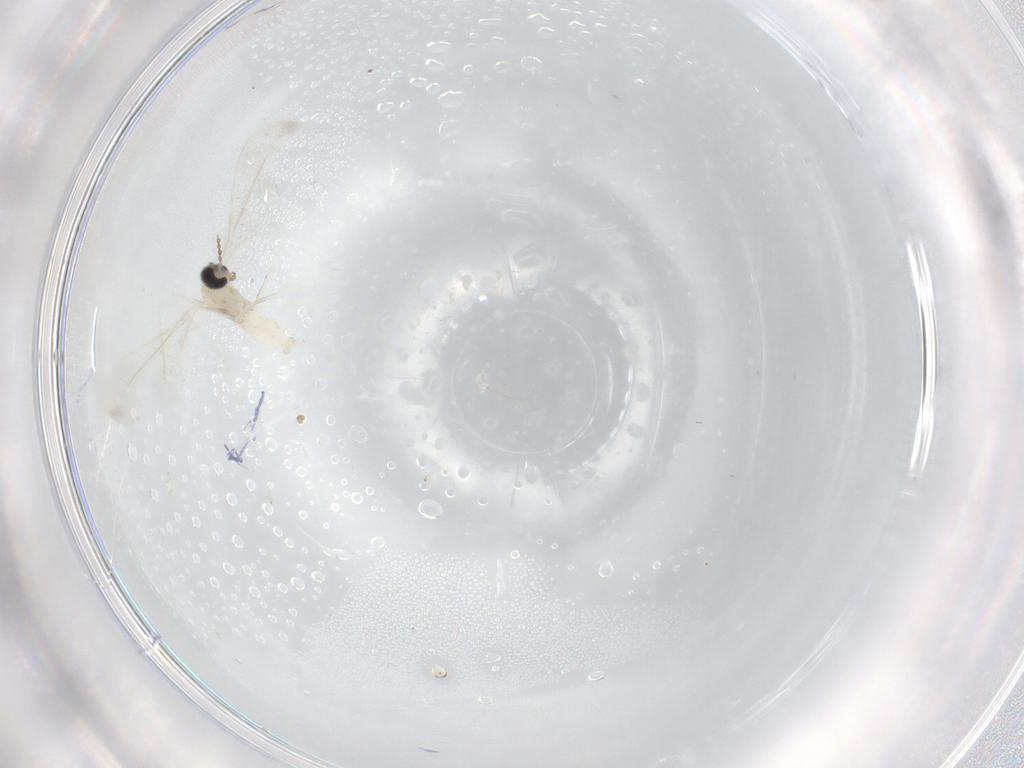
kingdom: Animalia
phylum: Arthropoda
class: Insecta
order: Diptera
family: Cecidomyiidae
